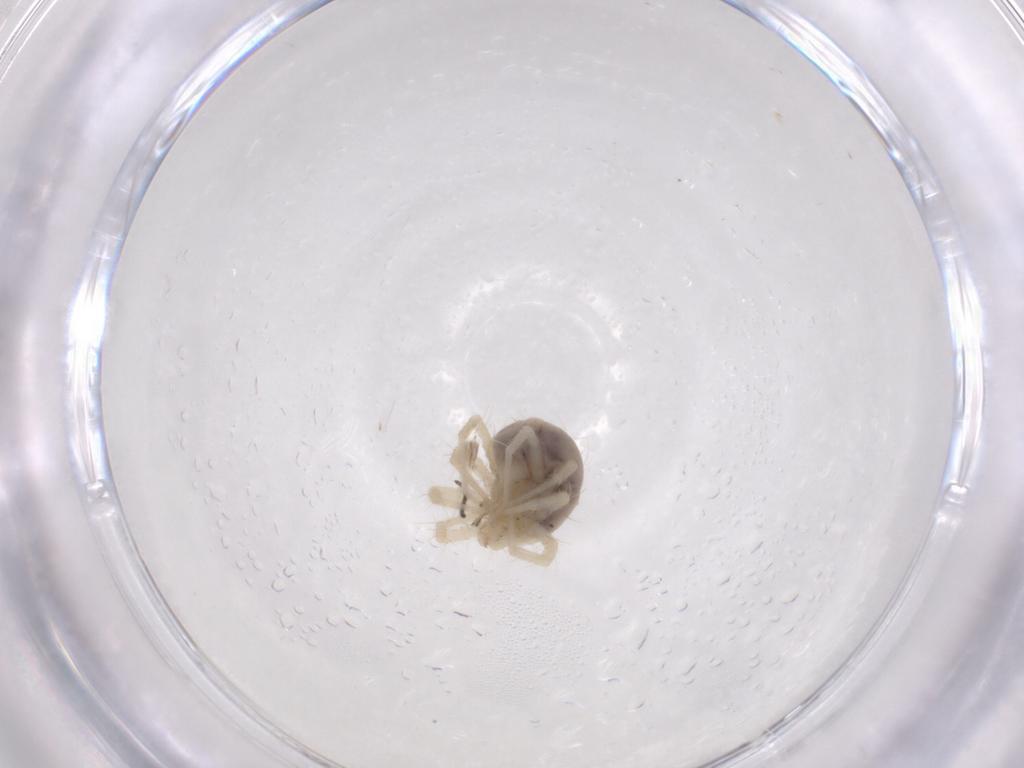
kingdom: Animalia
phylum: Arthropoda
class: Arachnida
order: Trombidiformes
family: Anystidae
